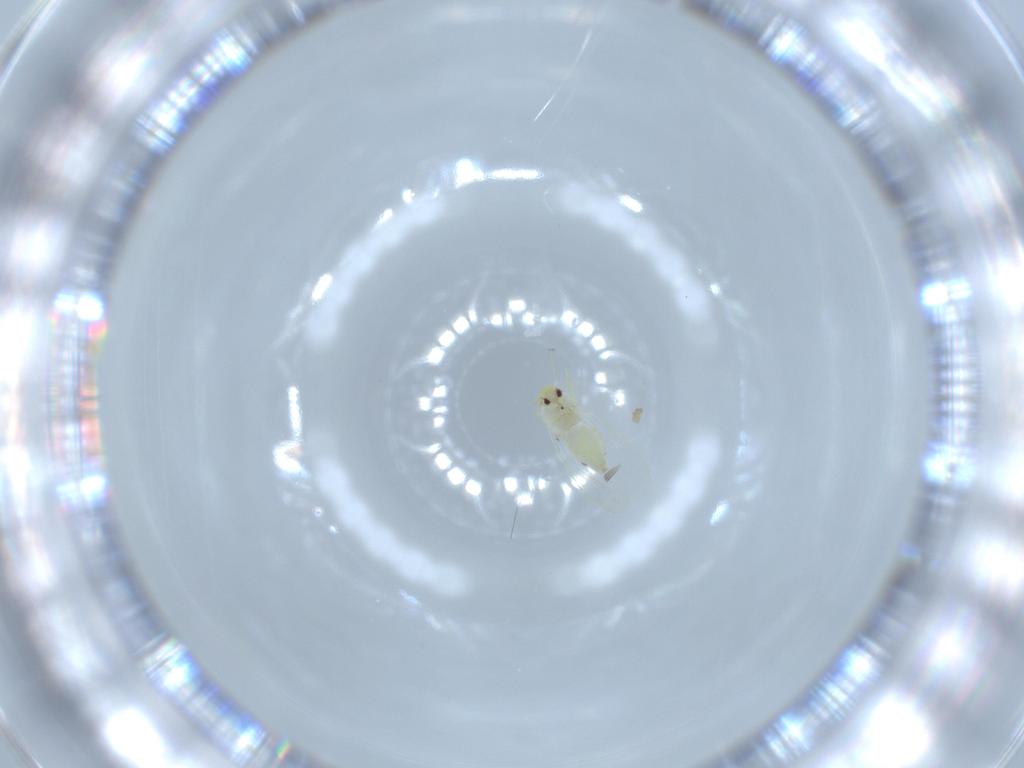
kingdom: Animalia
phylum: Arthropoda
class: Insecta
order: Hemiptera
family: Aleyrodidae
